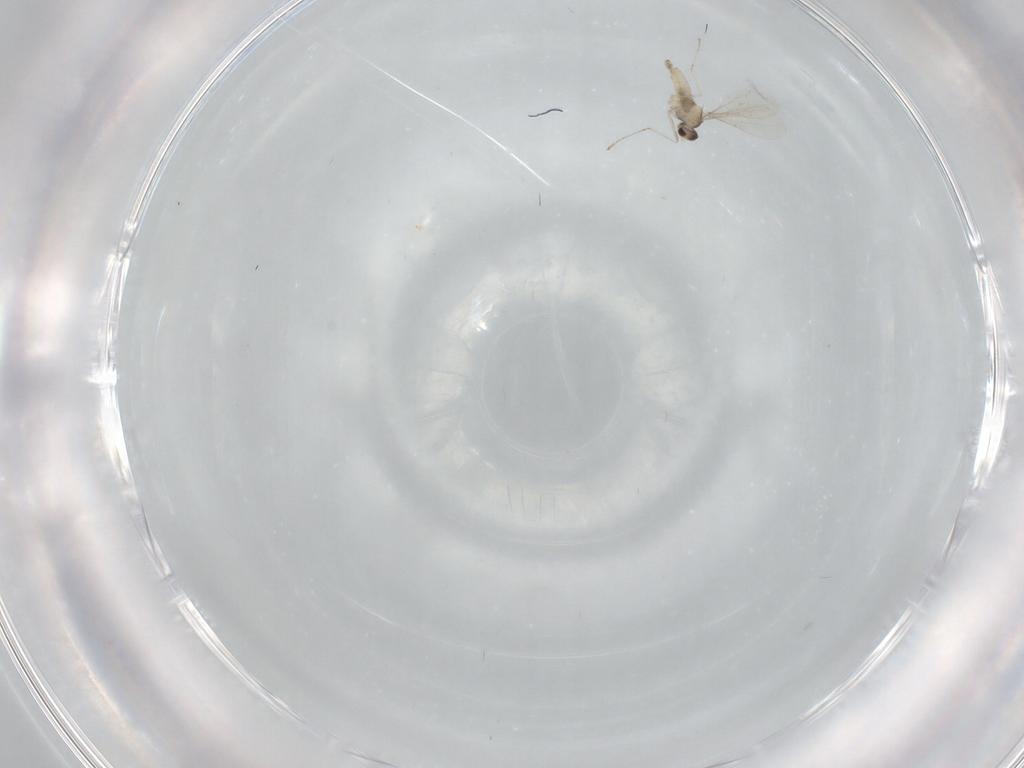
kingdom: Animalia
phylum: Arthropoda
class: Insecta
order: Diptera
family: Cecidomyiidae
